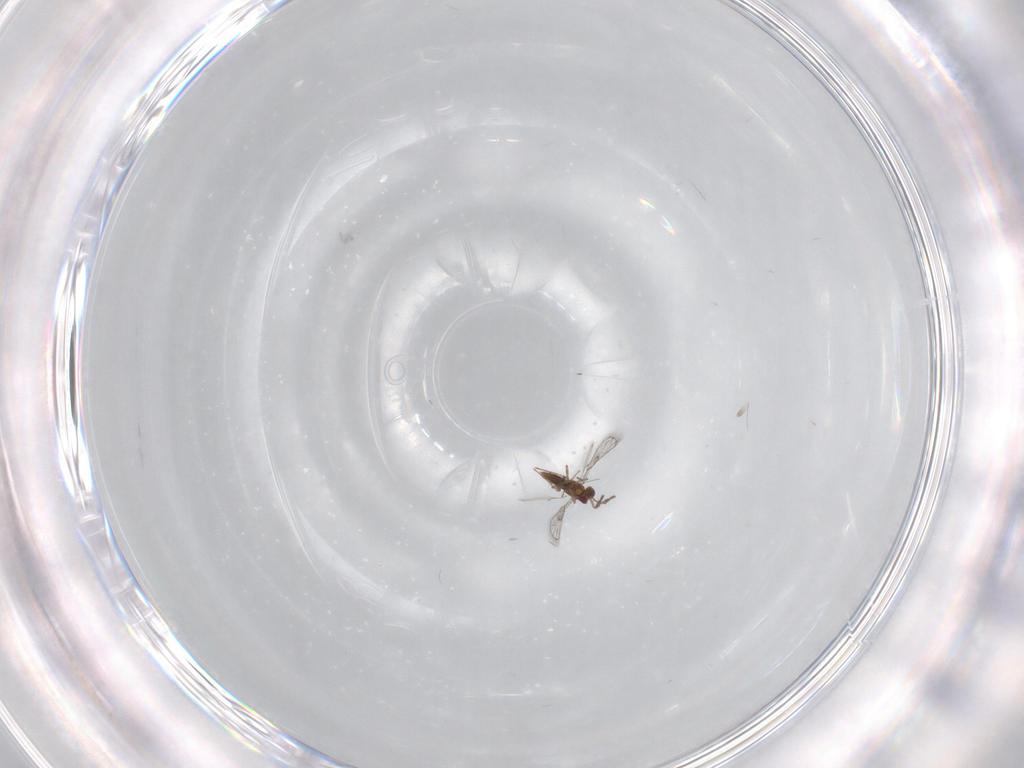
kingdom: Animalia
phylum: Arthropoda
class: Insecta
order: Hymenoptera
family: Trichogrammatidae
